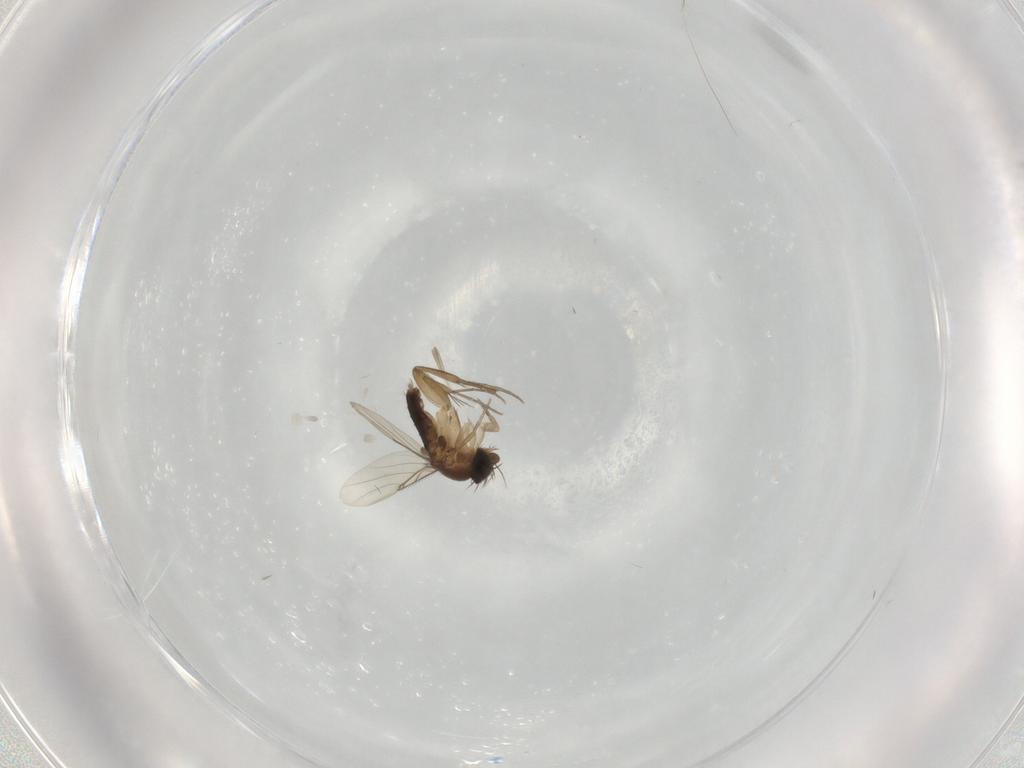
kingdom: Animalia
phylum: Arthropoda
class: Insecta
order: Diptera
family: Phoridae
